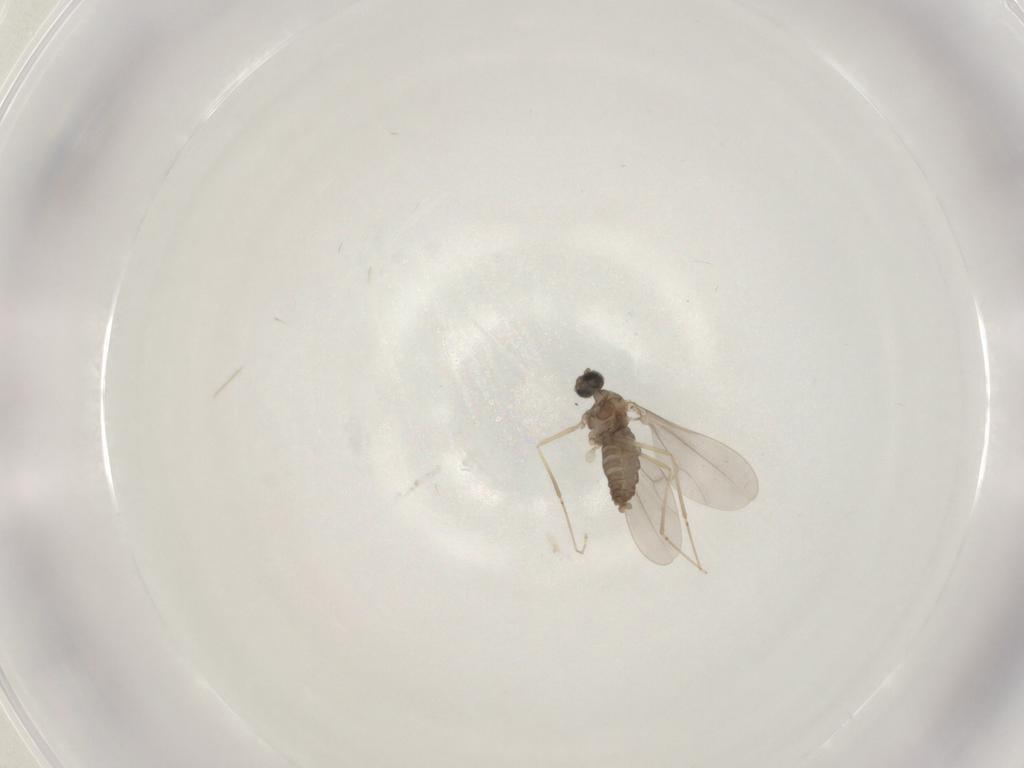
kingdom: Animalia
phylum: Arthropoda
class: Insecta
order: Diptera
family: Cecidomyiidae
